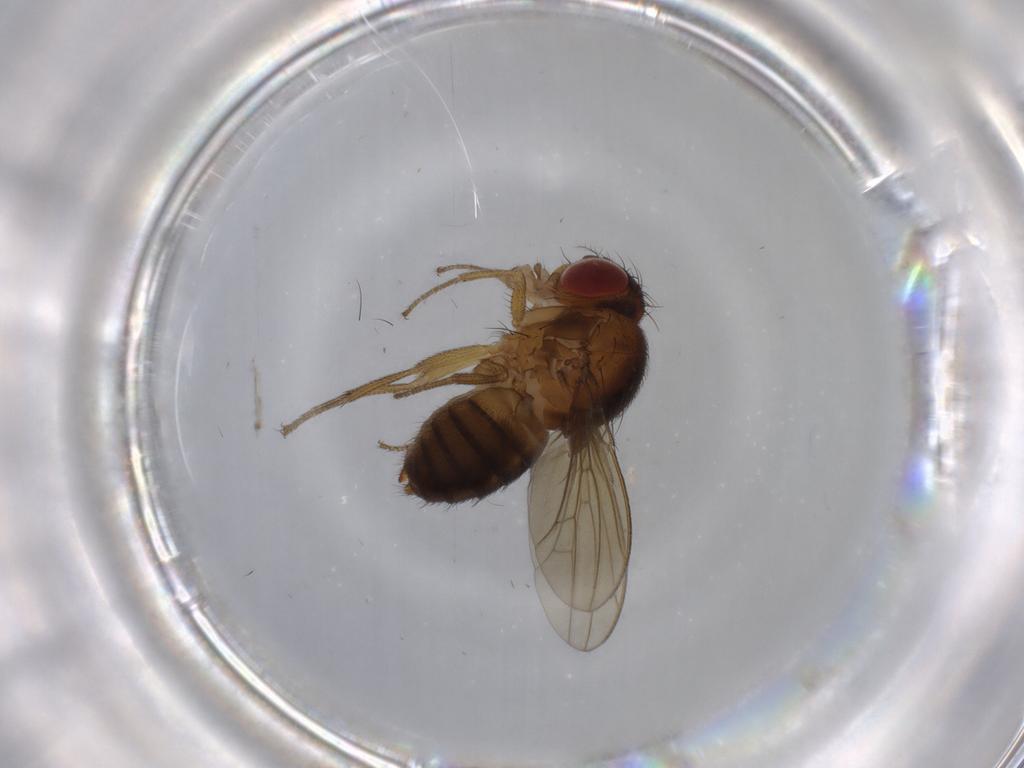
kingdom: Animalia
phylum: Arthropoda
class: Insecta
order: Diptera
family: Drosophilidae
